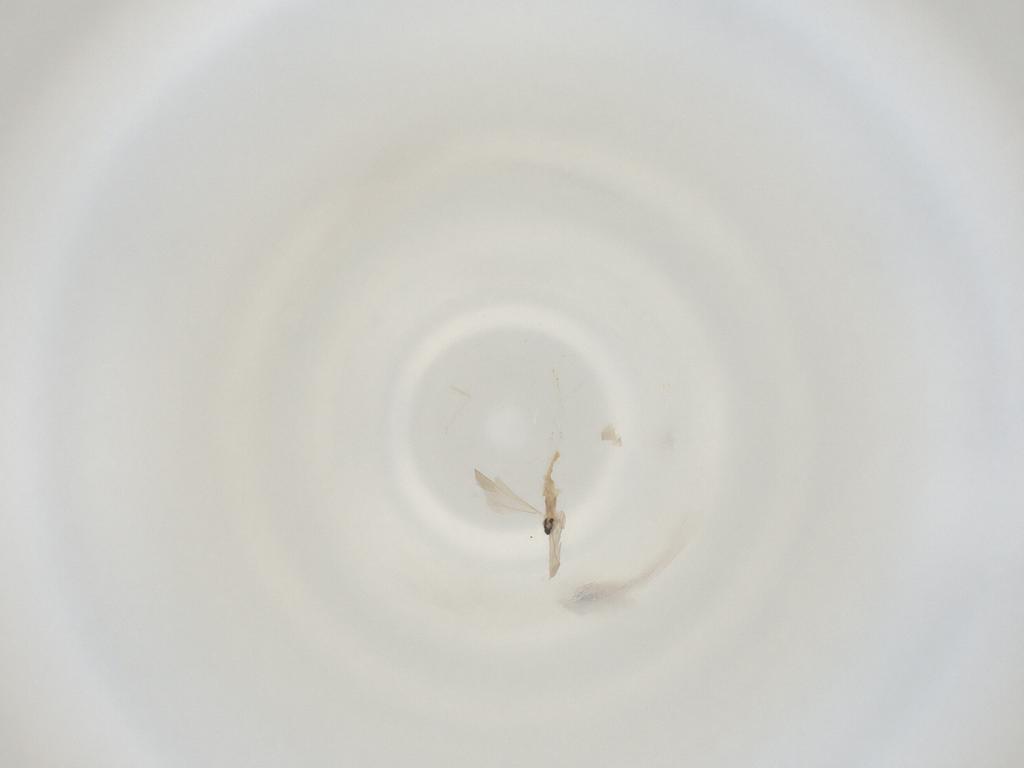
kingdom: Animalia
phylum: Arthropoda
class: Insecta
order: Diptera
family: Cecidomyiidae
